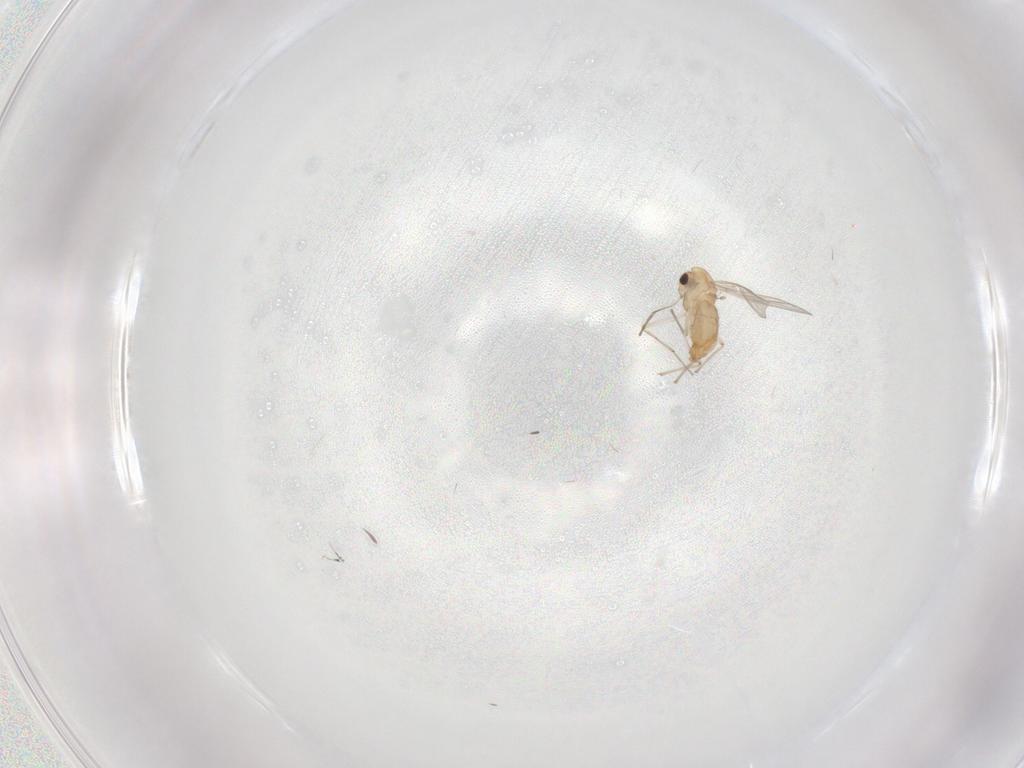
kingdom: Animalia
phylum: Arthropoda
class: Insecta
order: Diptera
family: Chironomidae
